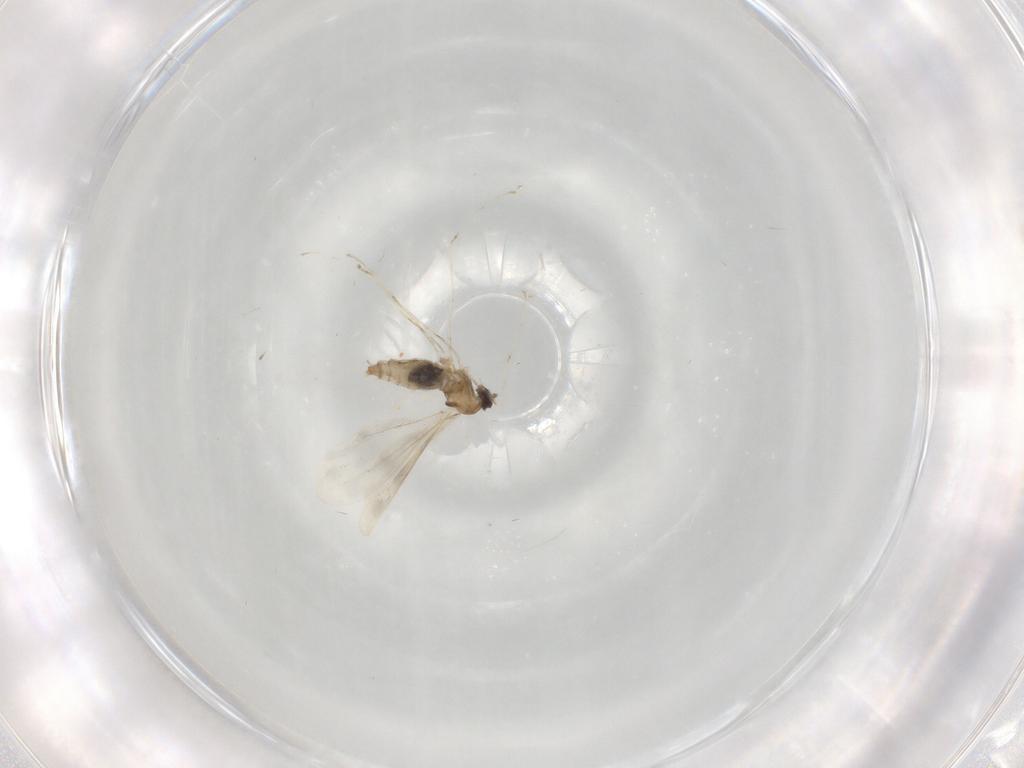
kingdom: Animalia
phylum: Arthropoda
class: Insecta
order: Diptera
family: Cecidomyiidae
